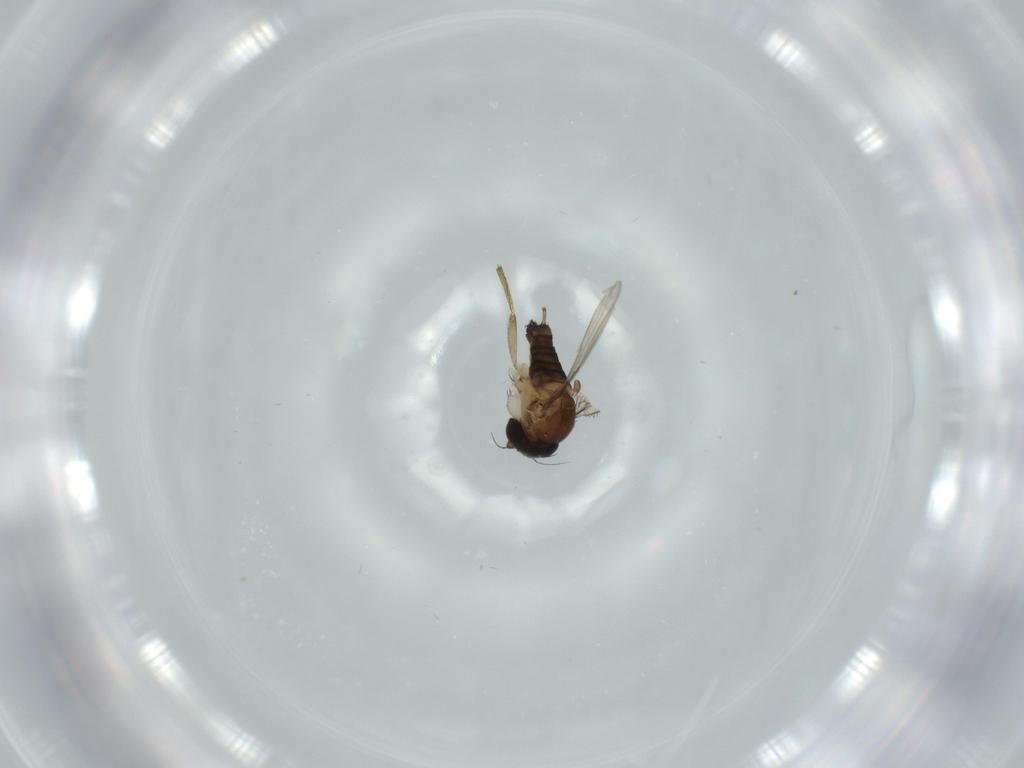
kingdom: Animalia
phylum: Arthropoda
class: Insecta
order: Diptera
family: Phoridae
